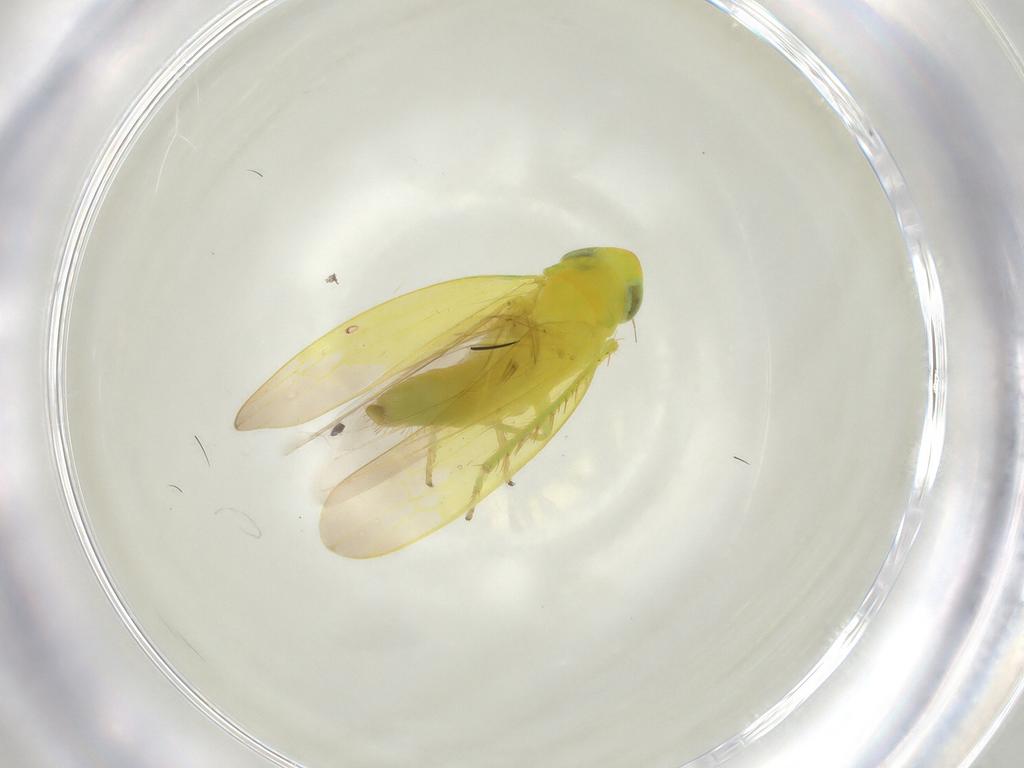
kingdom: Animalia
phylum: Arthropoda
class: Insecta
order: Hemiptera
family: Cicadellidae
